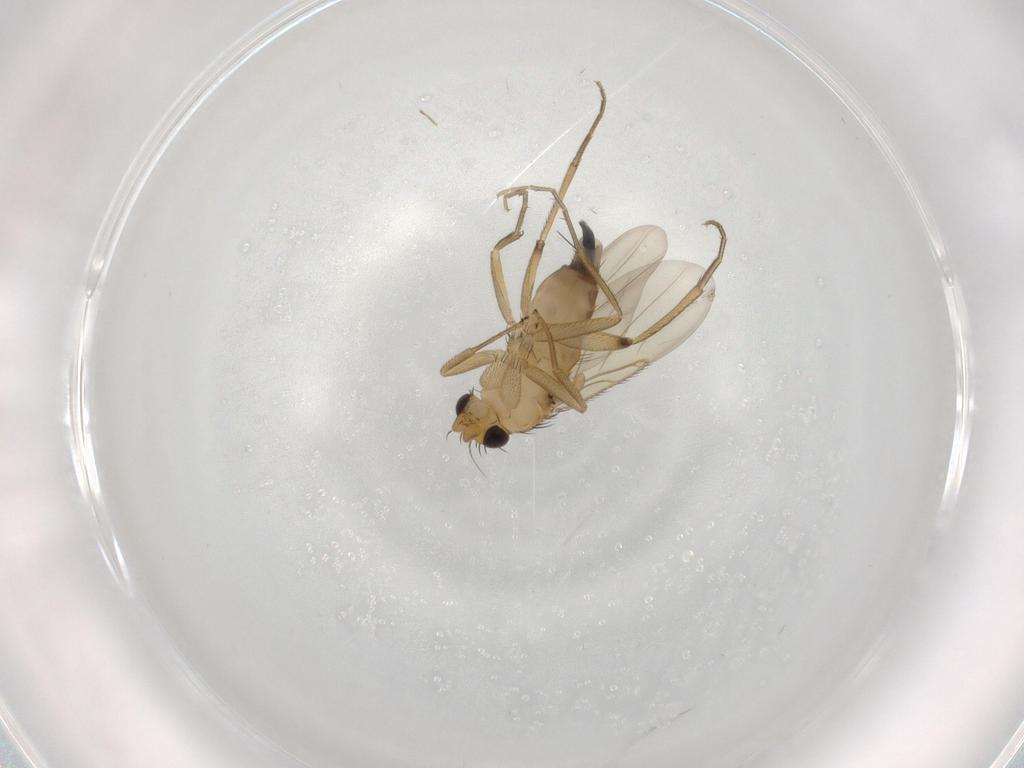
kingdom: Animalia
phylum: Arthropoda
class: Insecta
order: Diptera
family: Phoridae
